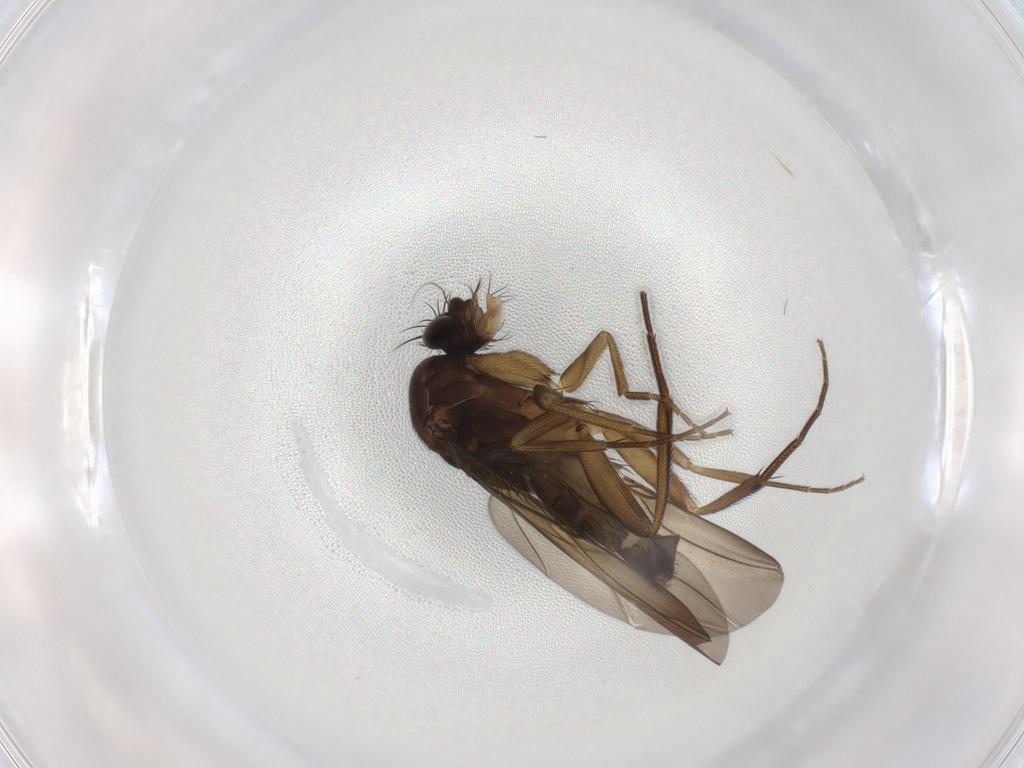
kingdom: Animalia
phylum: Arthropoda
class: Insecta
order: Diptera
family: Phoridae
